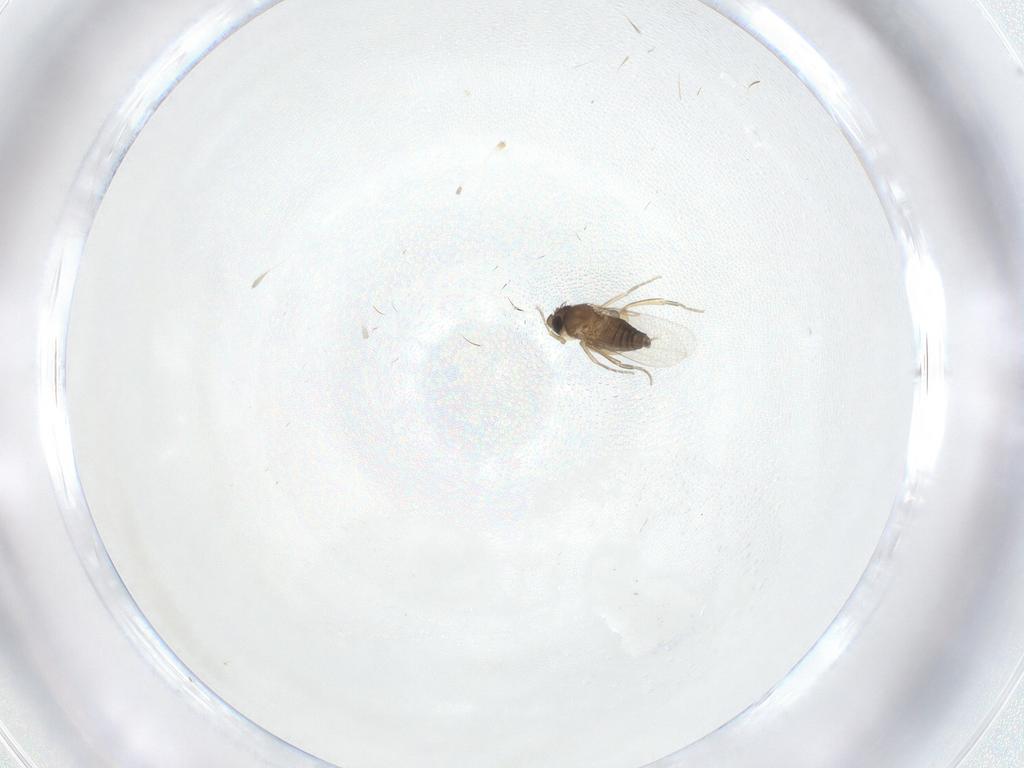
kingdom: Animalia
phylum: Arthropoda
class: Insecta
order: Diptera
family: Phoridae
